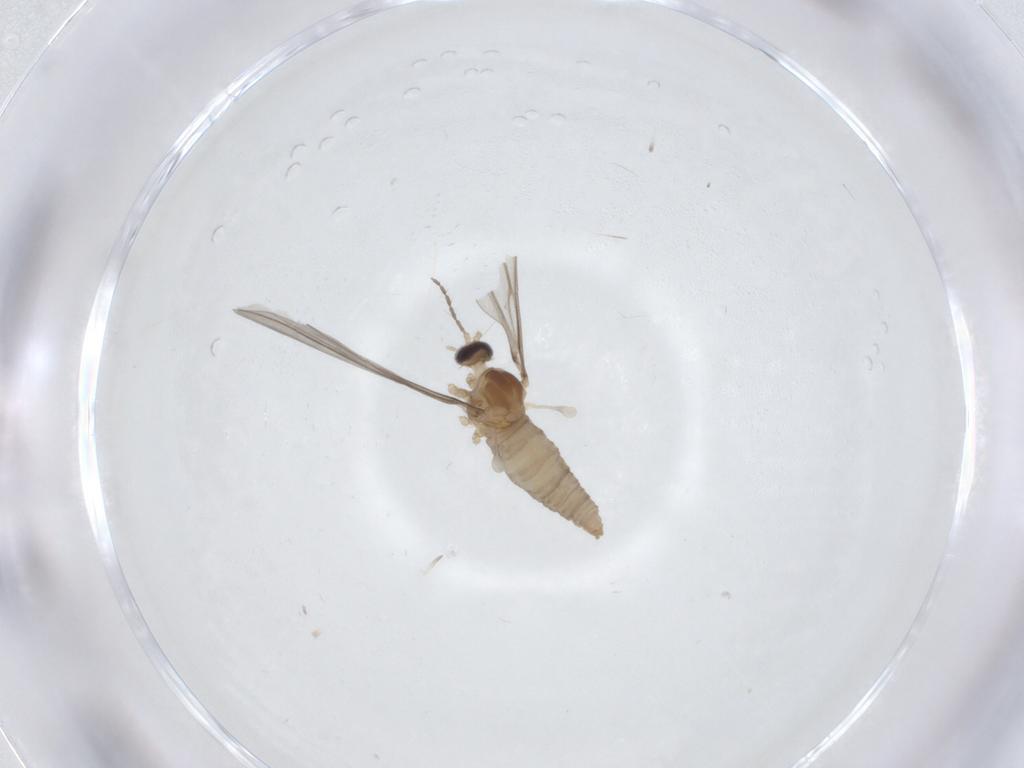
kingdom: Animalia
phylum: Arthropoda
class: Insecta
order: Diptera
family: Cecidomyiidae
